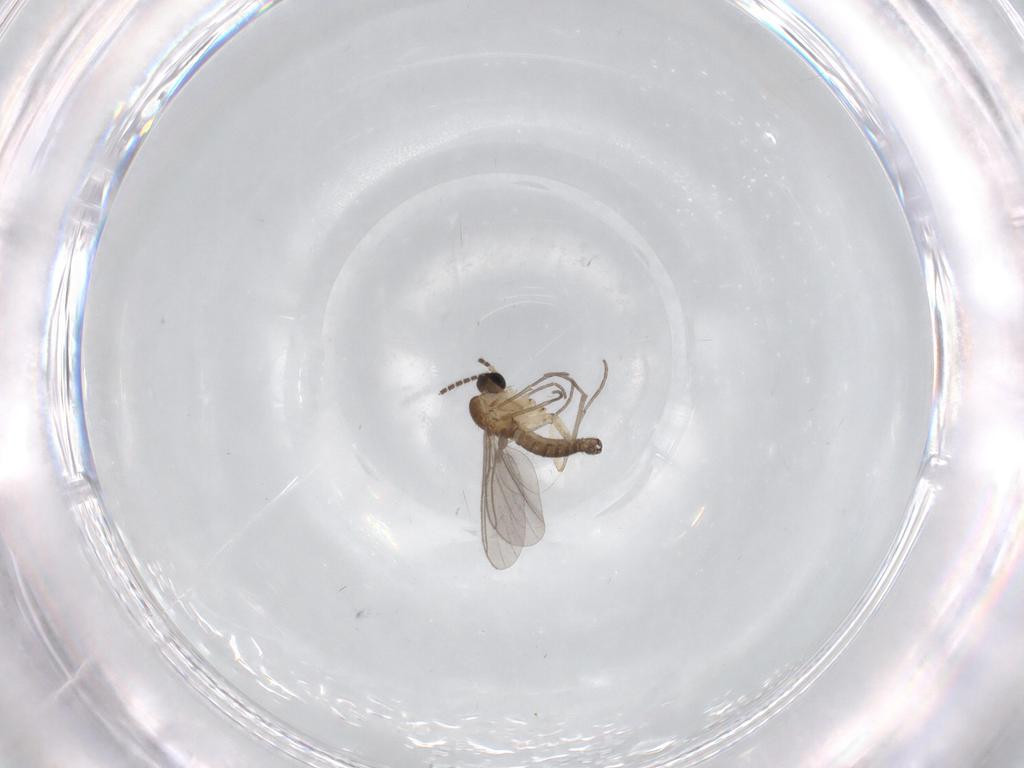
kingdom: Animalia
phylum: Arthropoda
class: Insecta
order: Diptera
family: Sciaridae
